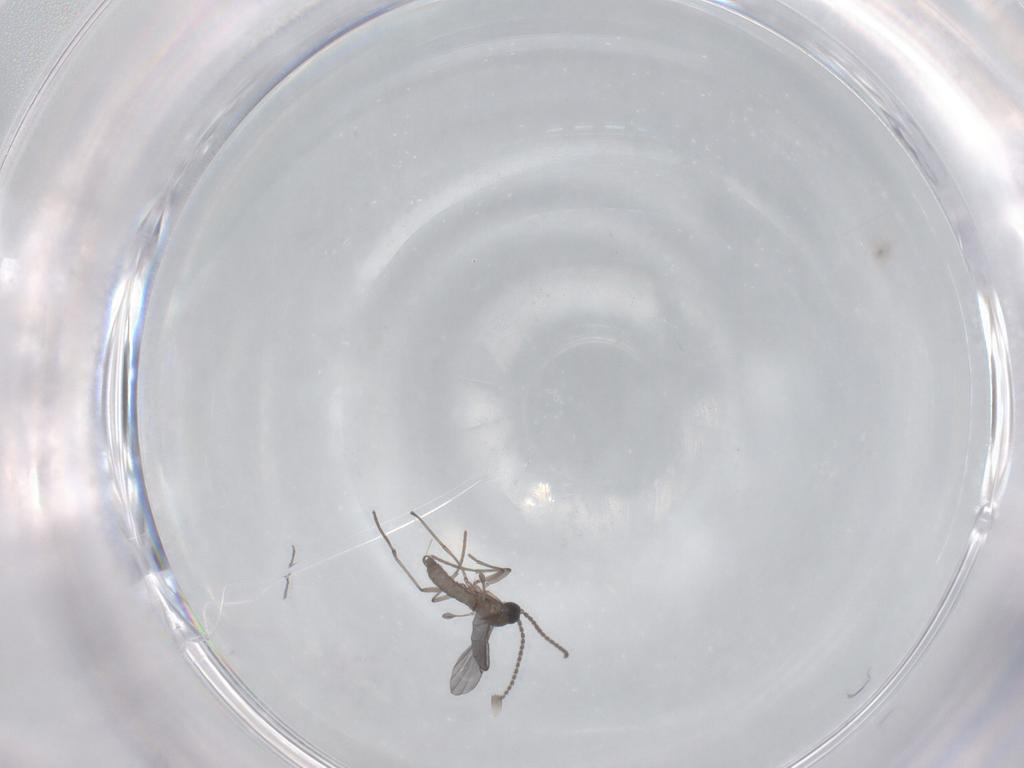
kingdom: Animalia
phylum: Arthropoda
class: Insecta
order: Diptera
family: Sciaridae
